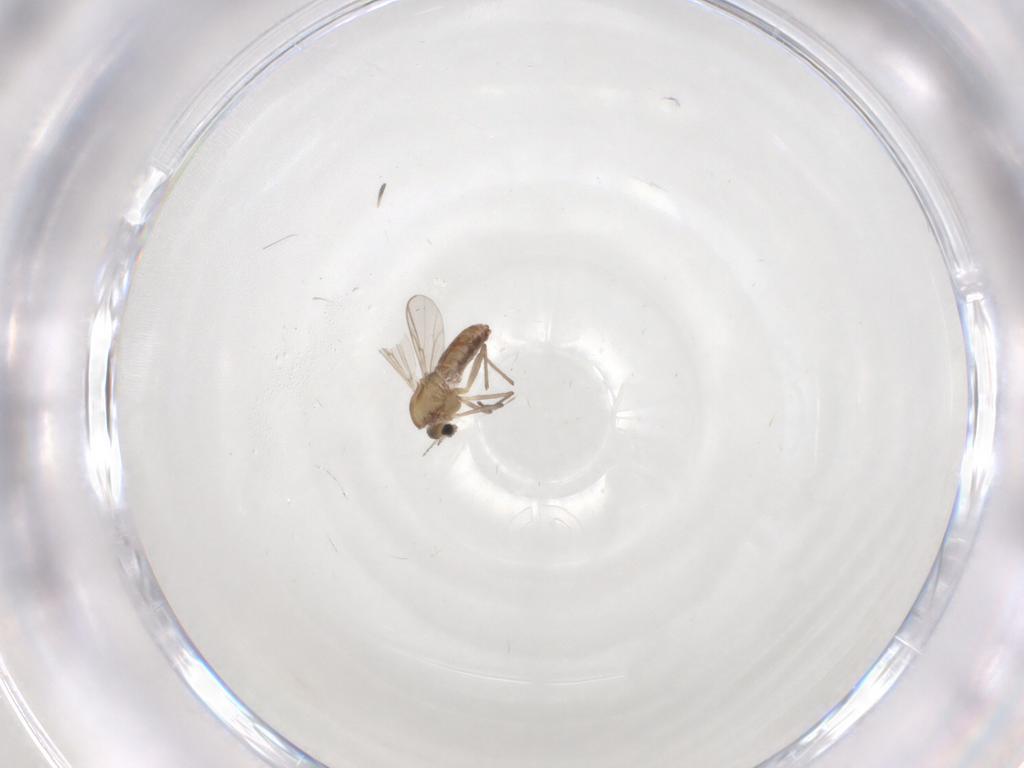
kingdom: Animalia
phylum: Arthropoda
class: Insecta
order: Diptera
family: Chironomidae
